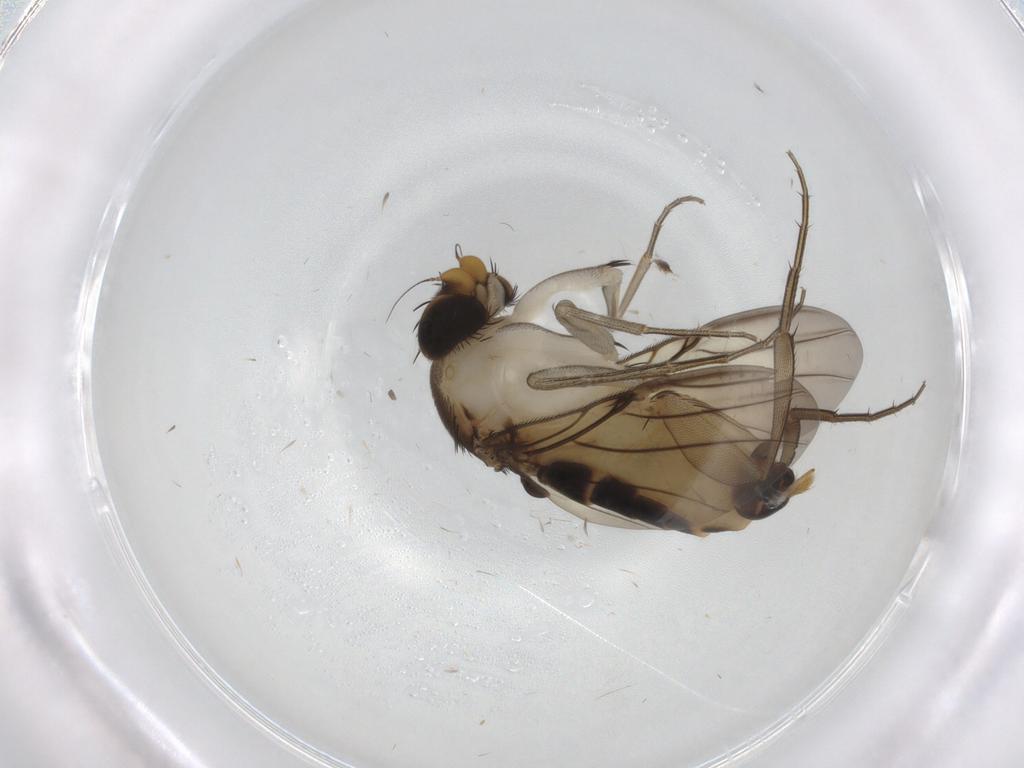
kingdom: Animalia
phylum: Arthropoda
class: Insecta
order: Diptera
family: Phoridae
